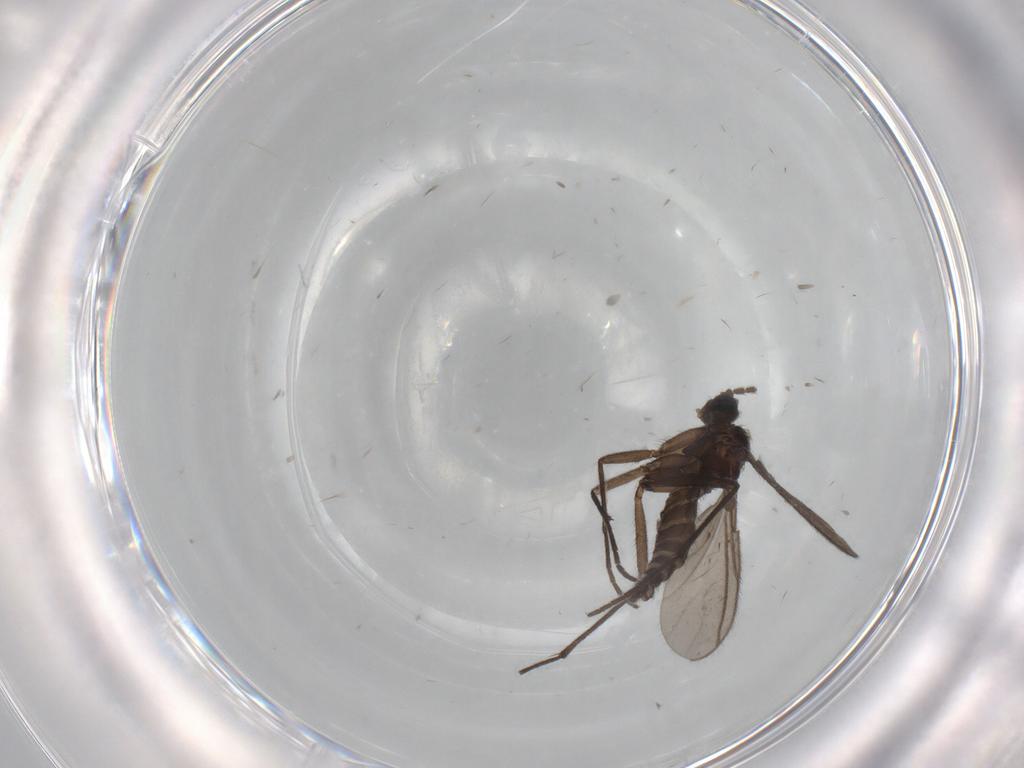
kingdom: Animalia
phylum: Arthropoda
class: Insecta
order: Diptera
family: Sciaridae
